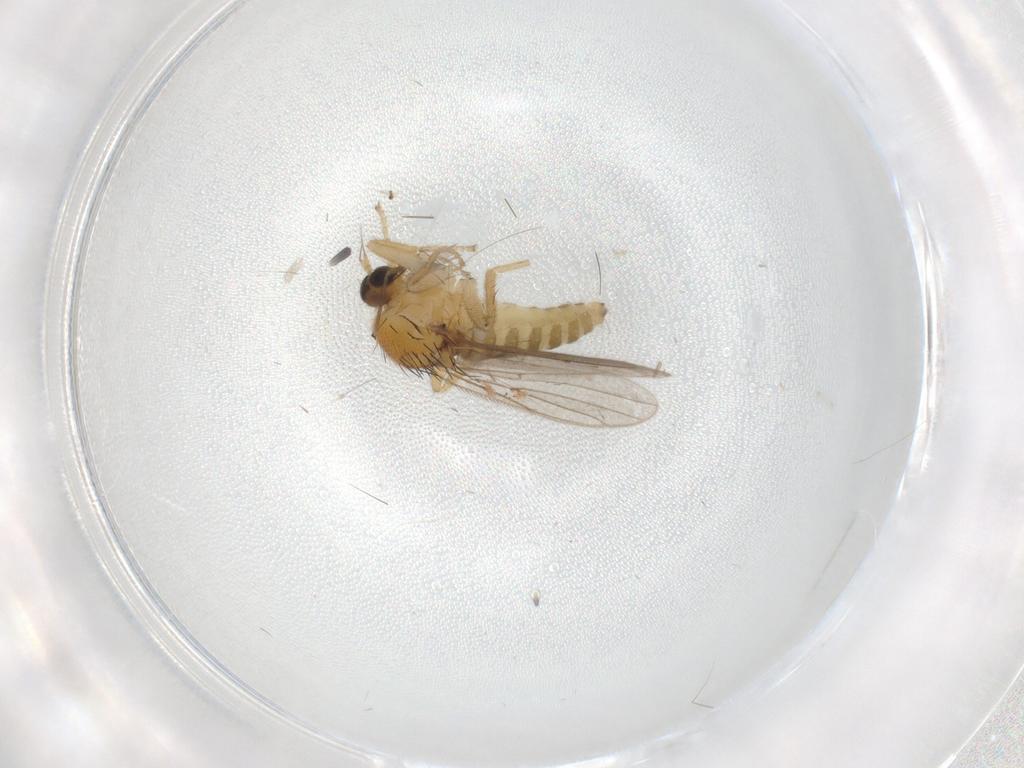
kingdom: Animalia
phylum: Arthropoda
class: Insecta
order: Diptera
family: Hybotidae
